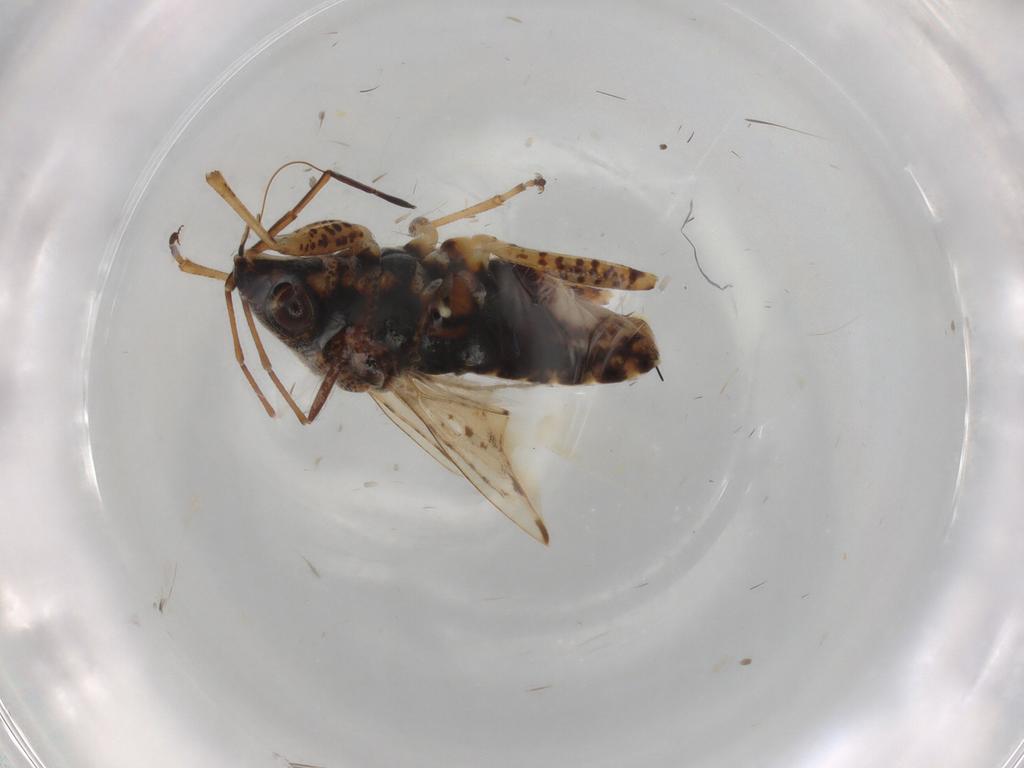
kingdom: Animalia
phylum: Arthropoda
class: Insecta
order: Hemiptera
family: Lygaeidae
